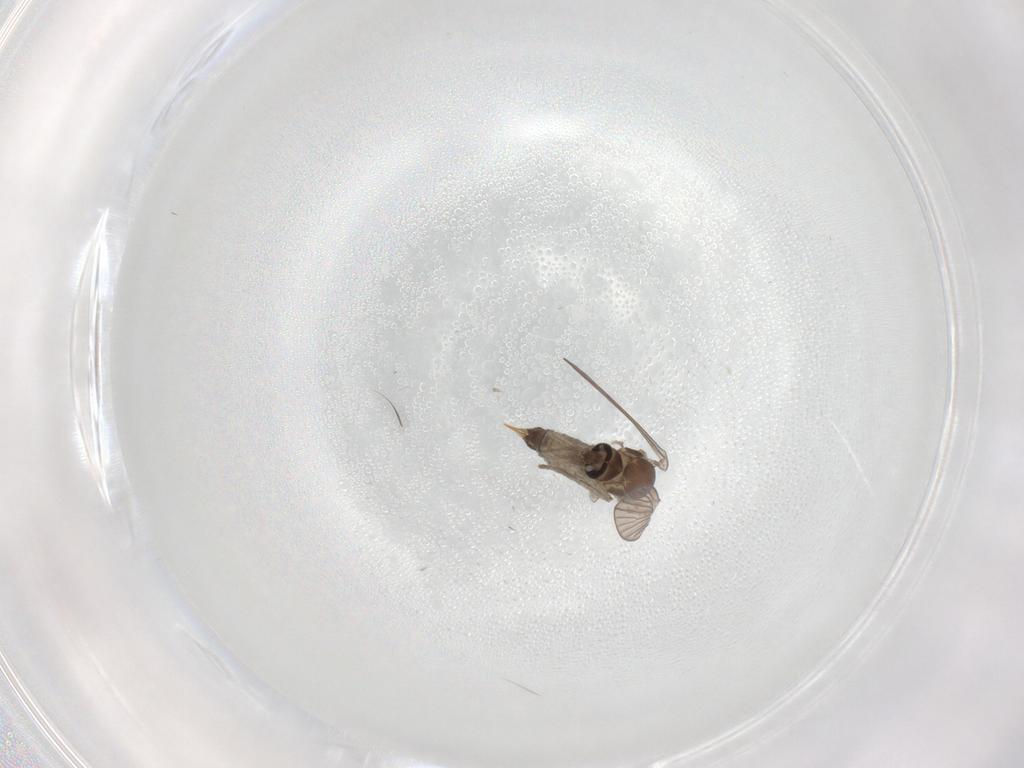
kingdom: Animalia
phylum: Arthropoda
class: Insecta
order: Diptera
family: Psychodidae
